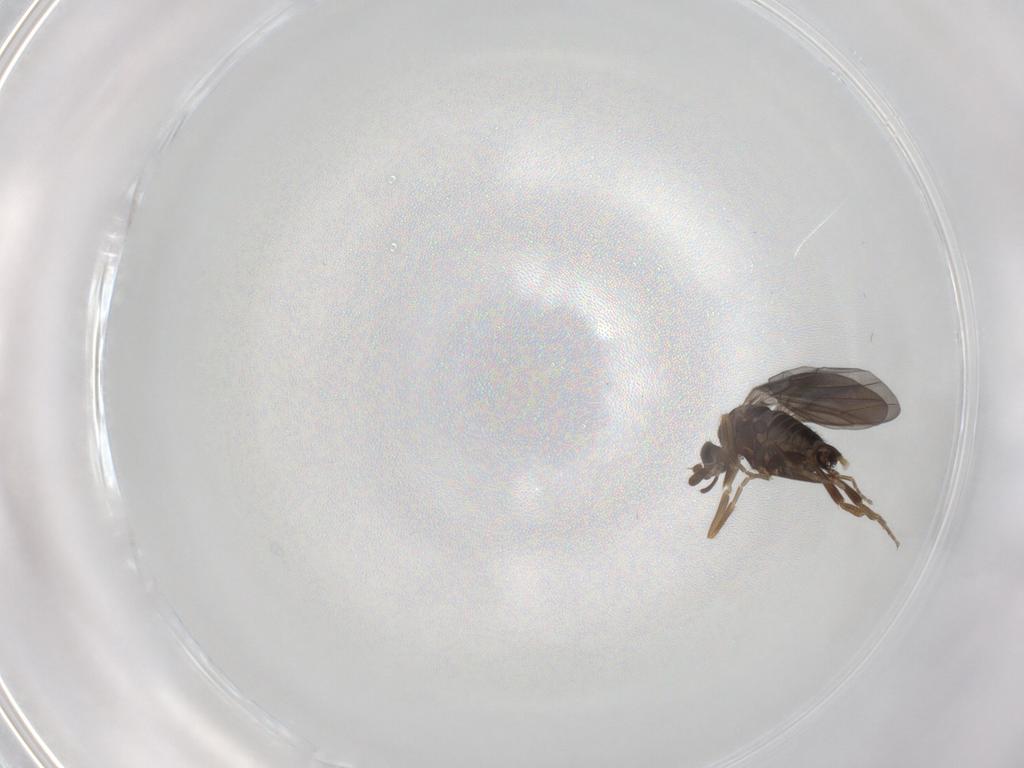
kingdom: Animalia
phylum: Arthropoda
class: Insecta
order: Diptera
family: Phoridae
